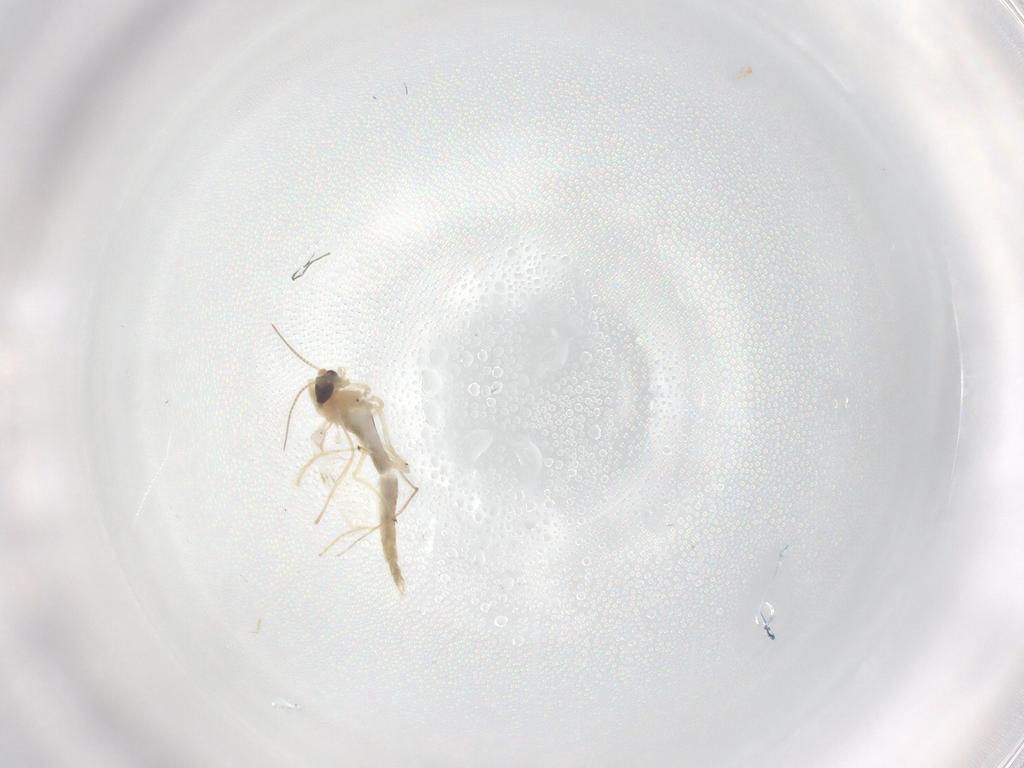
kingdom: Animalia
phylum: Arthropoda
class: Insecta
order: Diptera
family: Chironomidae
